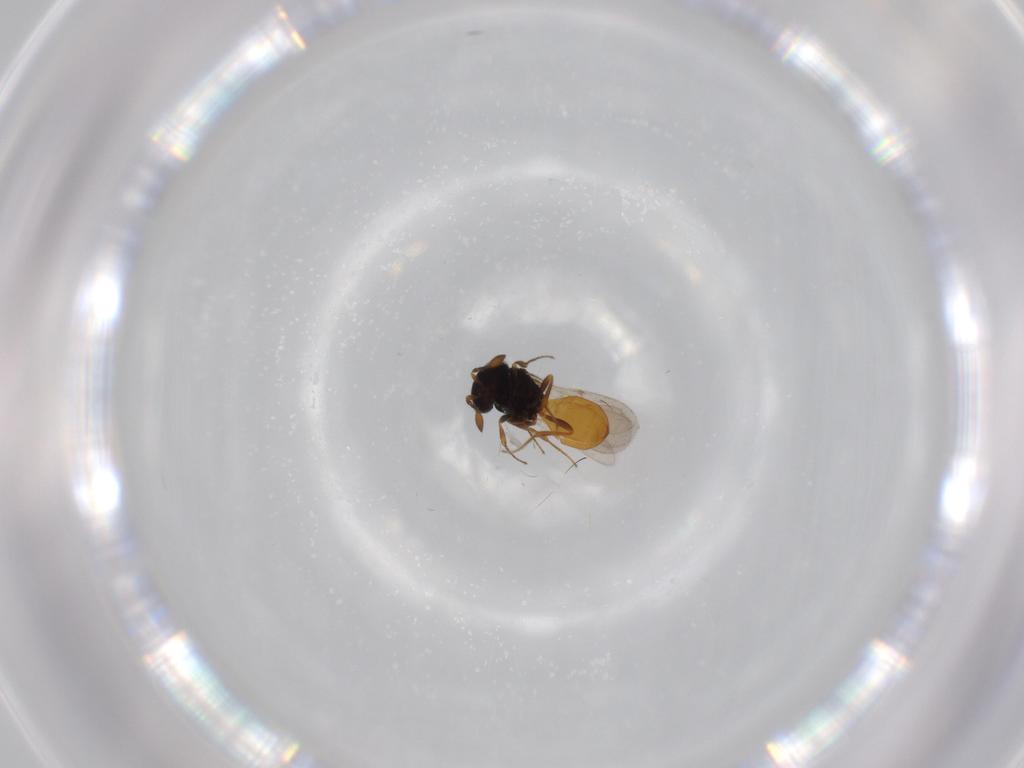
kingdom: Animalia
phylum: Arthropoda
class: Insecta
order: Hymenoptera
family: Scelionidae
